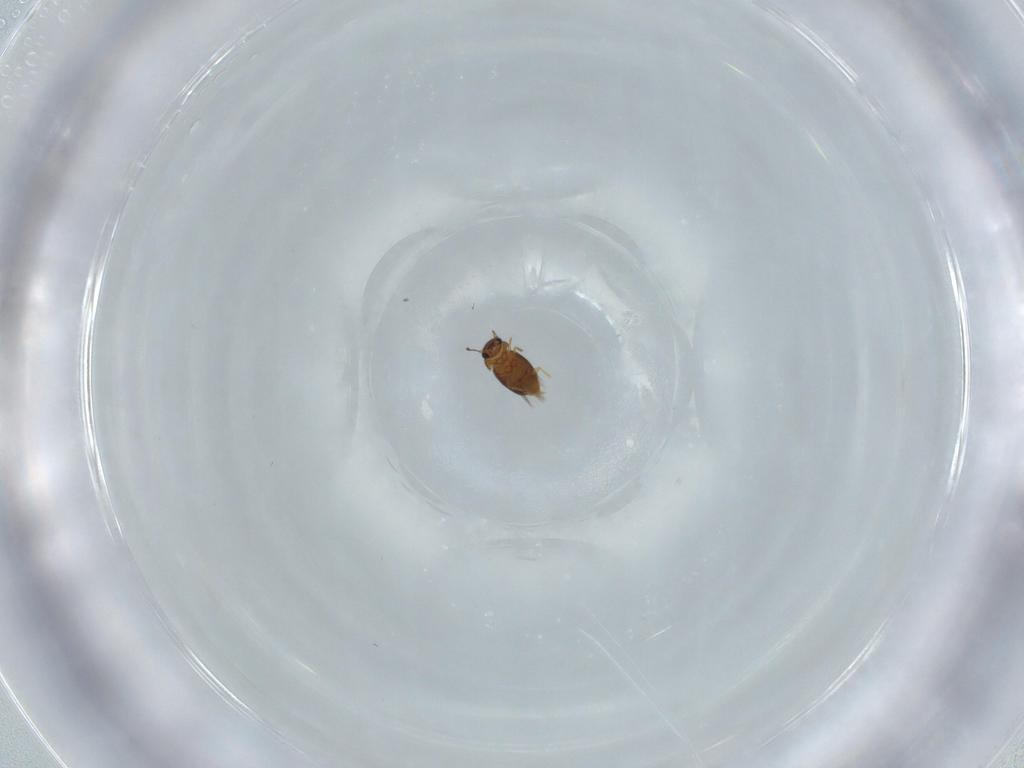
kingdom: Animalia
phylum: Arthropoda
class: Insecta
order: Coleoptera
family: Ptiliidae
